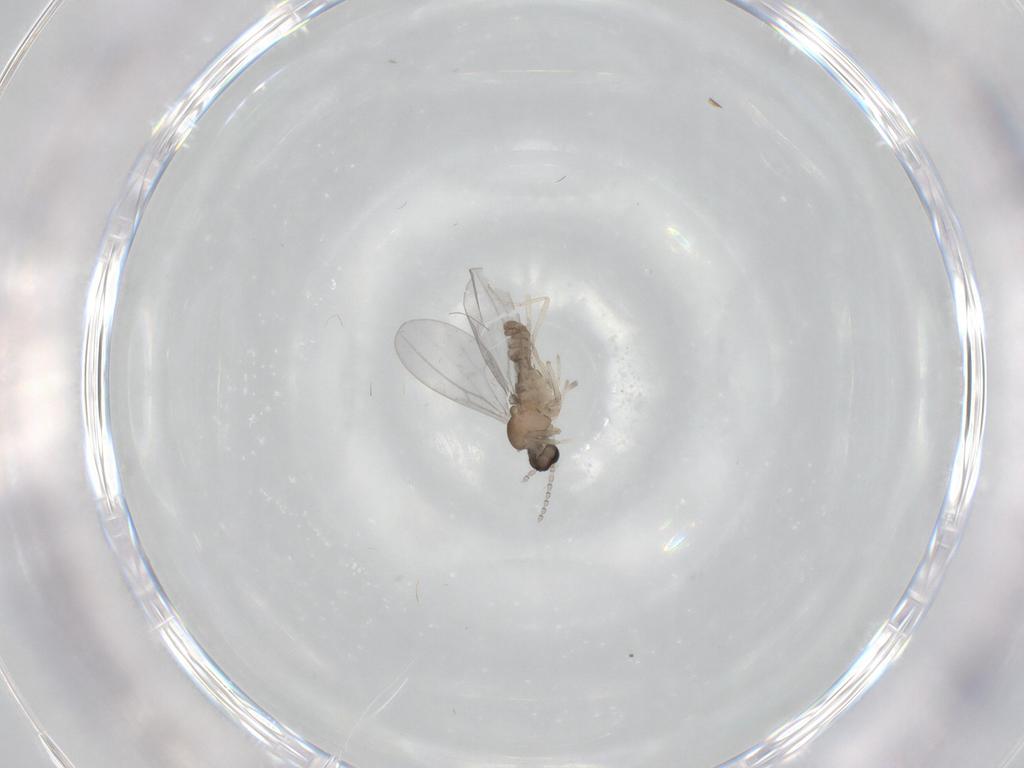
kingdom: Animalia
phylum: Arthropoda
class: Insecta
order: Diptera
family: Cecidomyiidae
